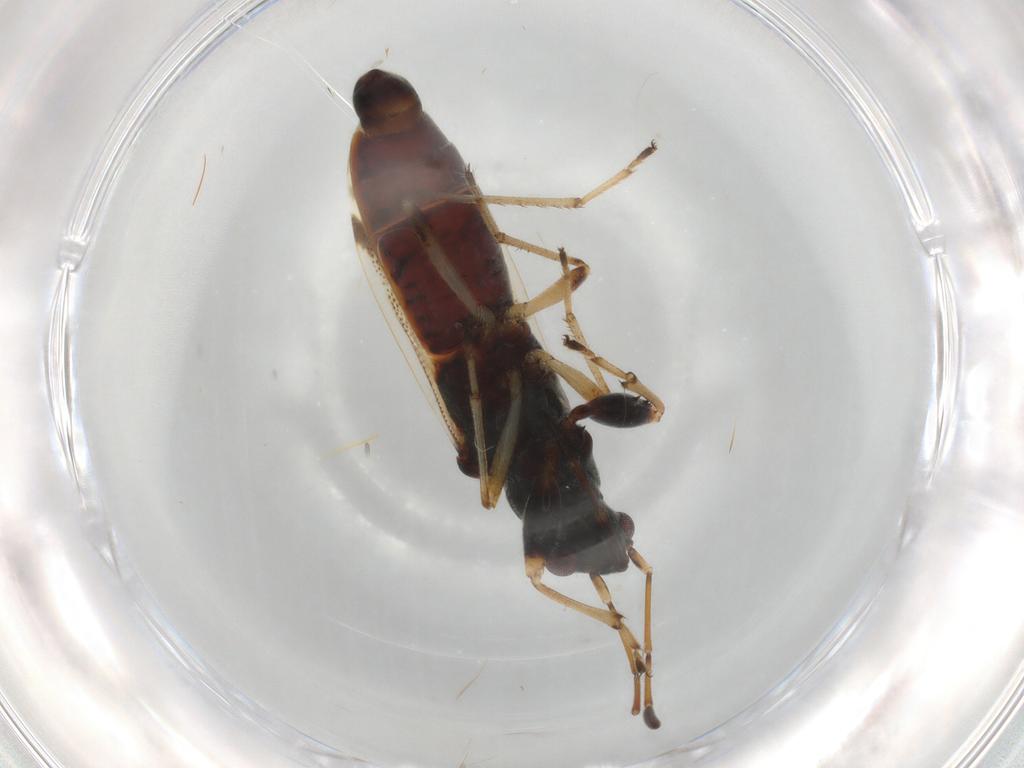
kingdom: Animalia
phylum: Arthropoda
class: Insecta
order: Hemiptera
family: Rhyparochromidae
